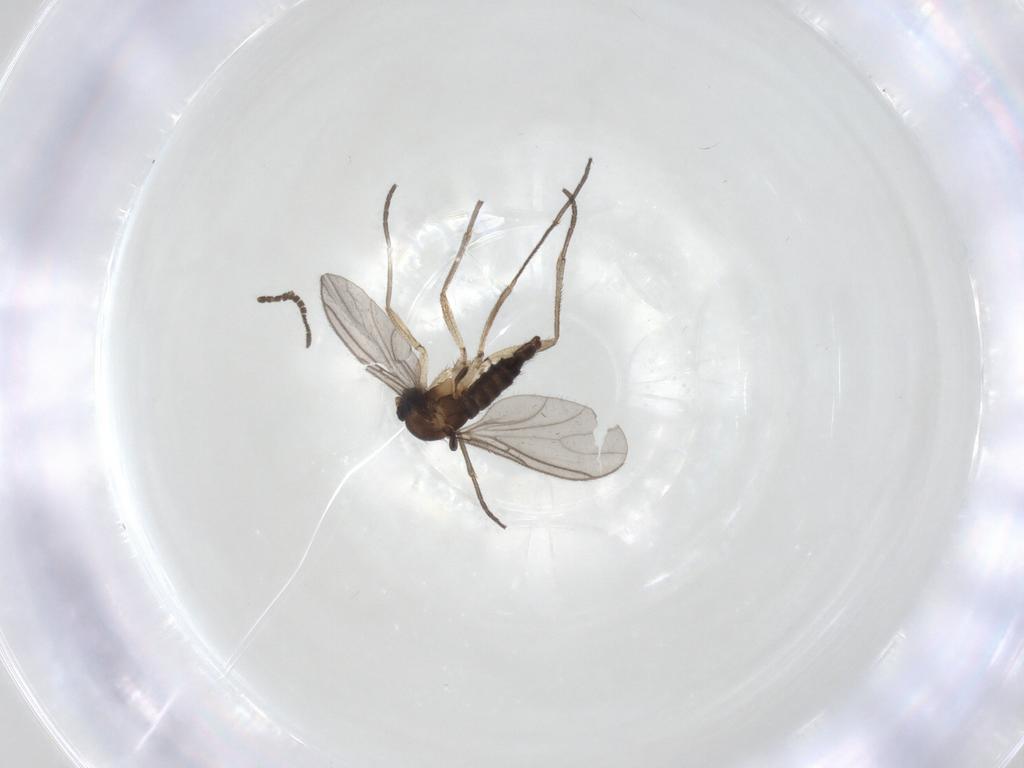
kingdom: Animalia
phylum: Arthropoda
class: Insecta
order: Diptera
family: Sciaridae
